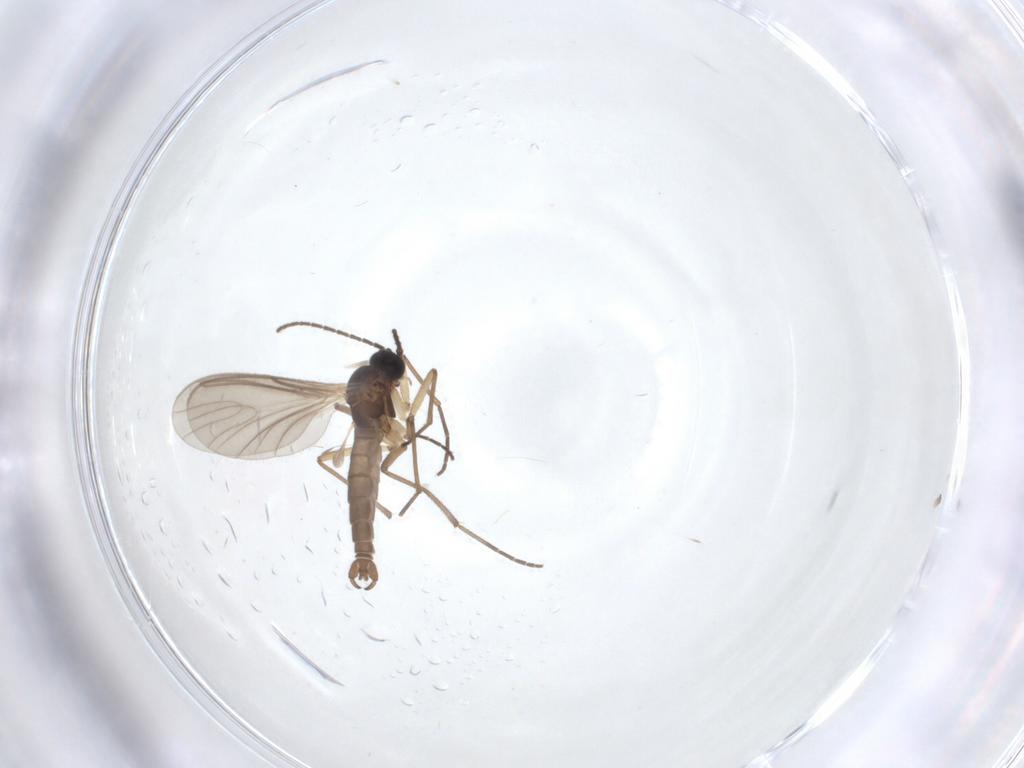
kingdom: Animalia
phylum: Arthropoda
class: Insecta
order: Diptera
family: Sciaridae
